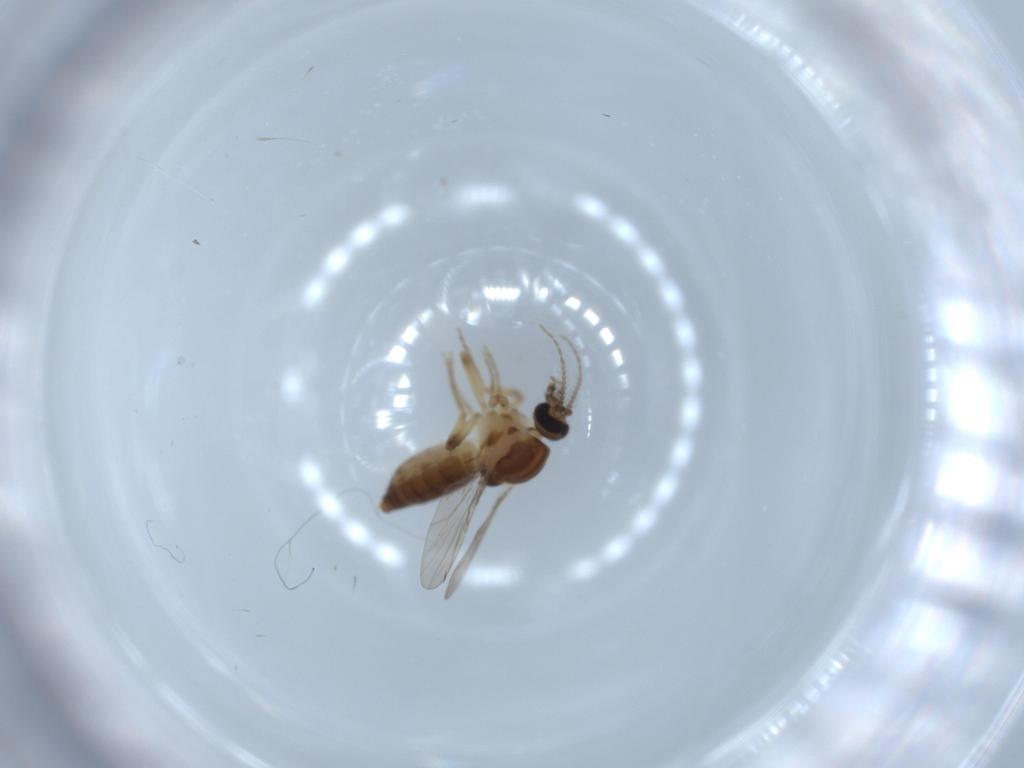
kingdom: Animalia
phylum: Arthropoda
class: Insecta
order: Diptera
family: Ceratopogonidae
